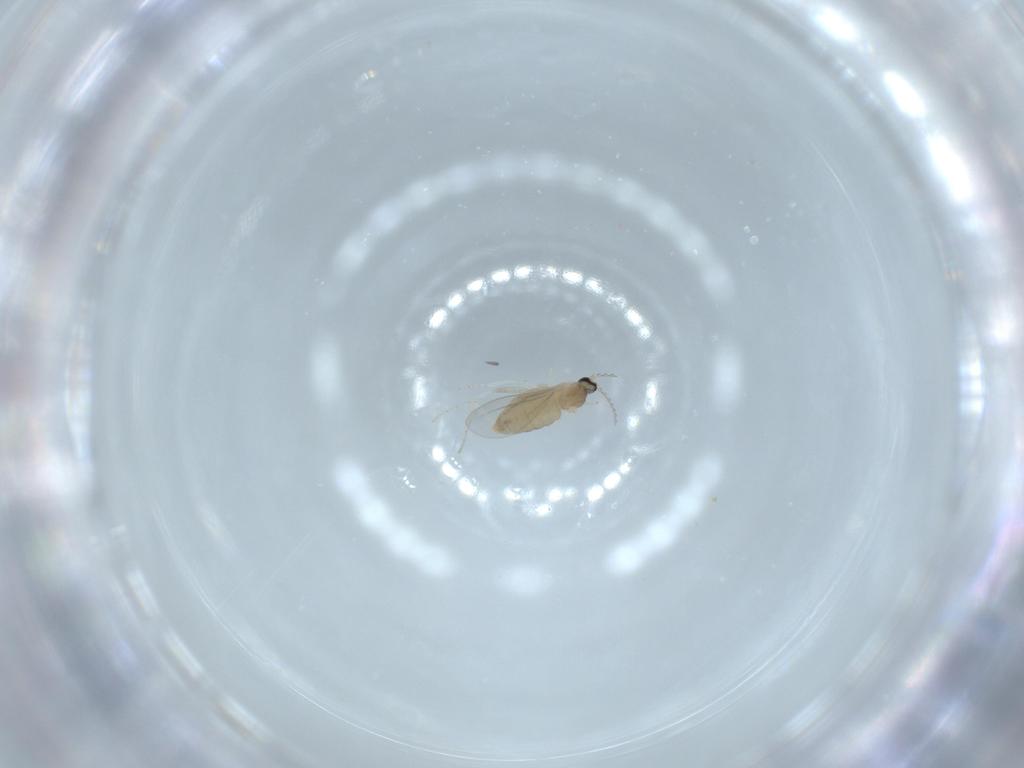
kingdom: Animalia
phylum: Arthropoda
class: Insecta
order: Diptera
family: Cecidomyiidae
